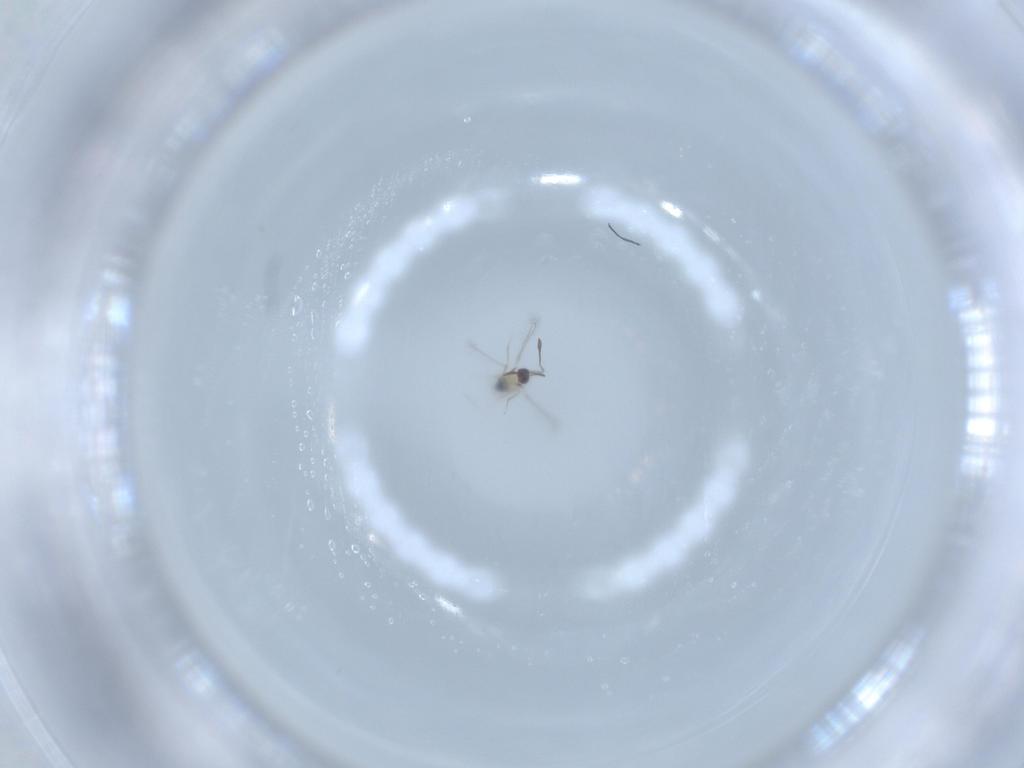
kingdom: Animalia
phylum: Arthropoda
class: Insecta
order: Hymenoptera
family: Mymaridae
